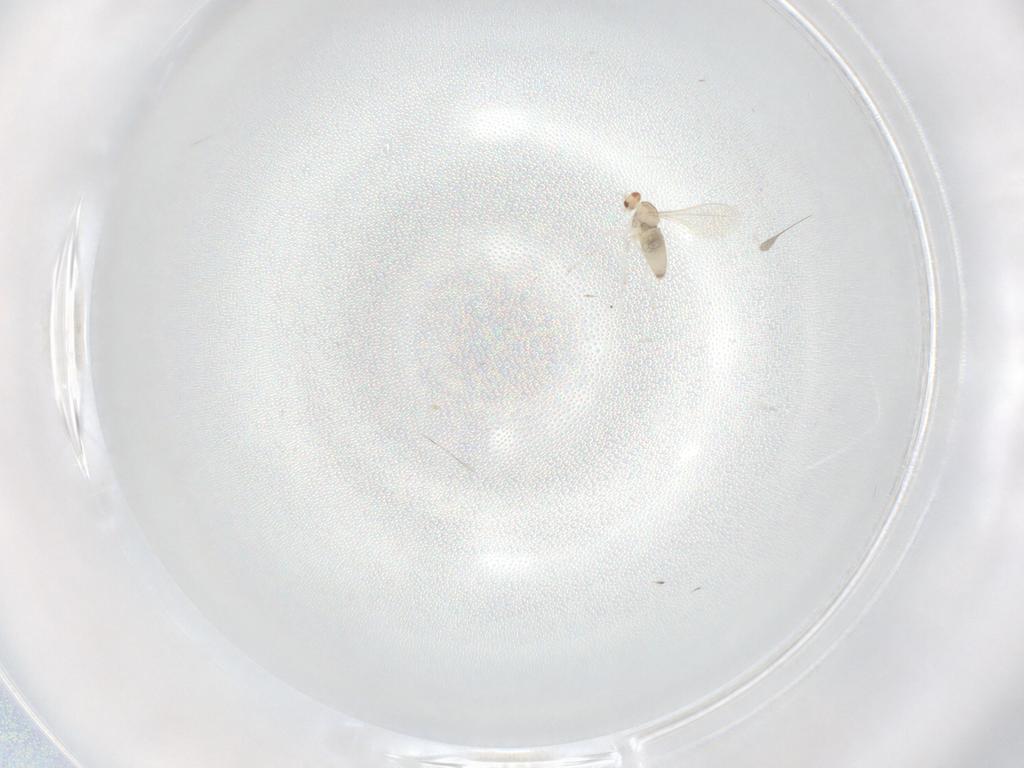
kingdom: Animalia
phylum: Arthropoda
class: Insecta
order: Diptera
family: Cecidomyiidae
